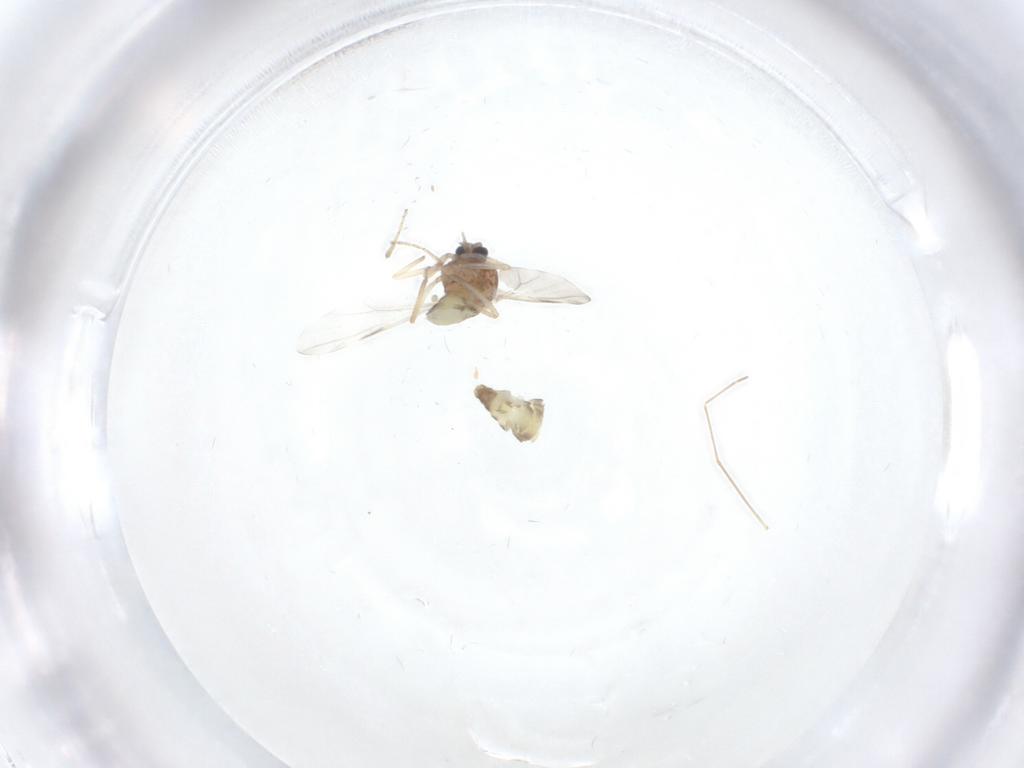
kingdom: Animalia
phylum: Arthropoda
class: Insecta
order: Diptera
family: Ceratopogonidae
